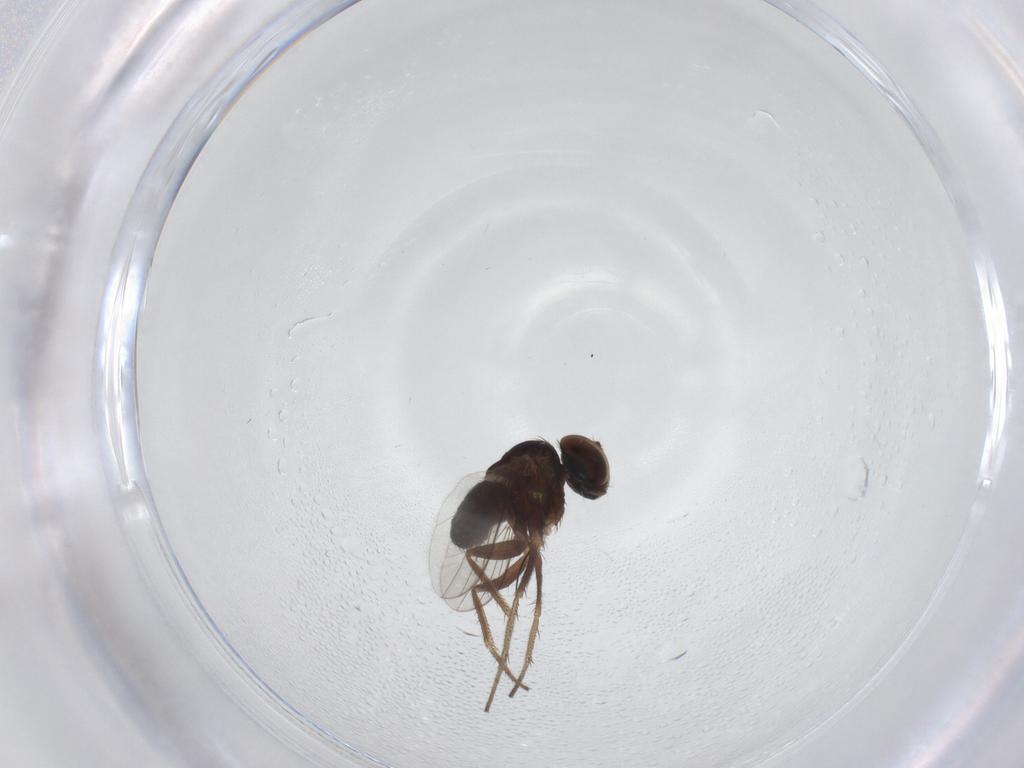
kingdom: Animalia
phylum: Arthropoda
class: Insecta
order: Diptera
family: Dolichopodidae
